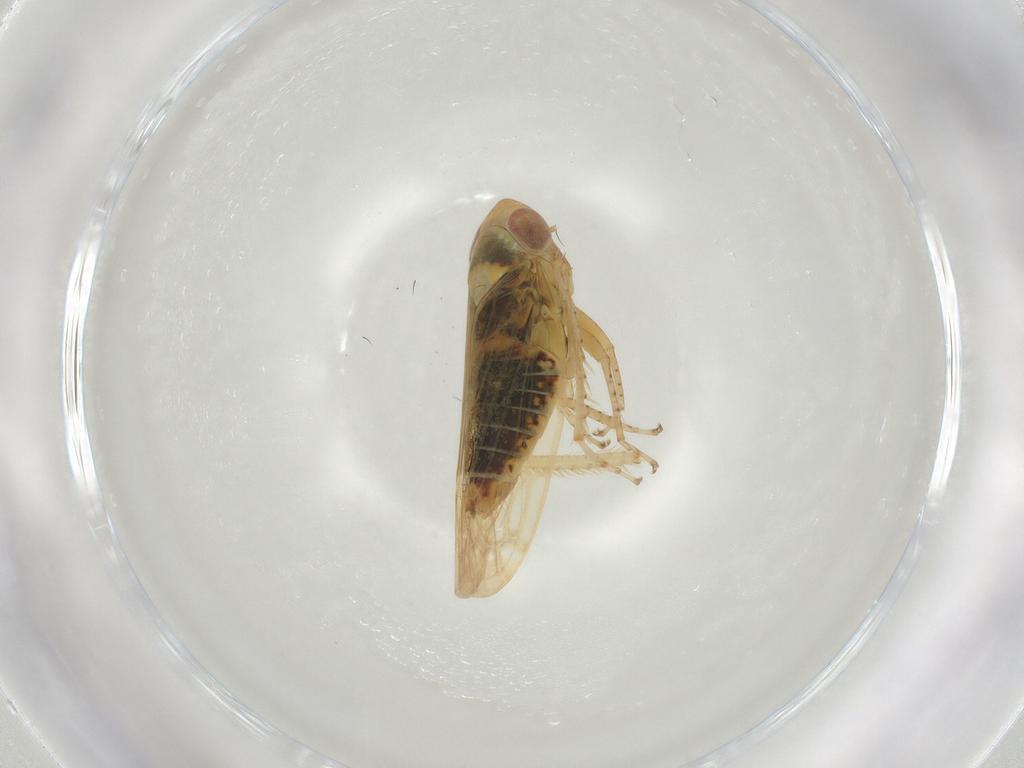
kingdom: Animalia
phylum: Arthropoda
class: Insecta
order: Hemiptera
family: Cicadellidae
